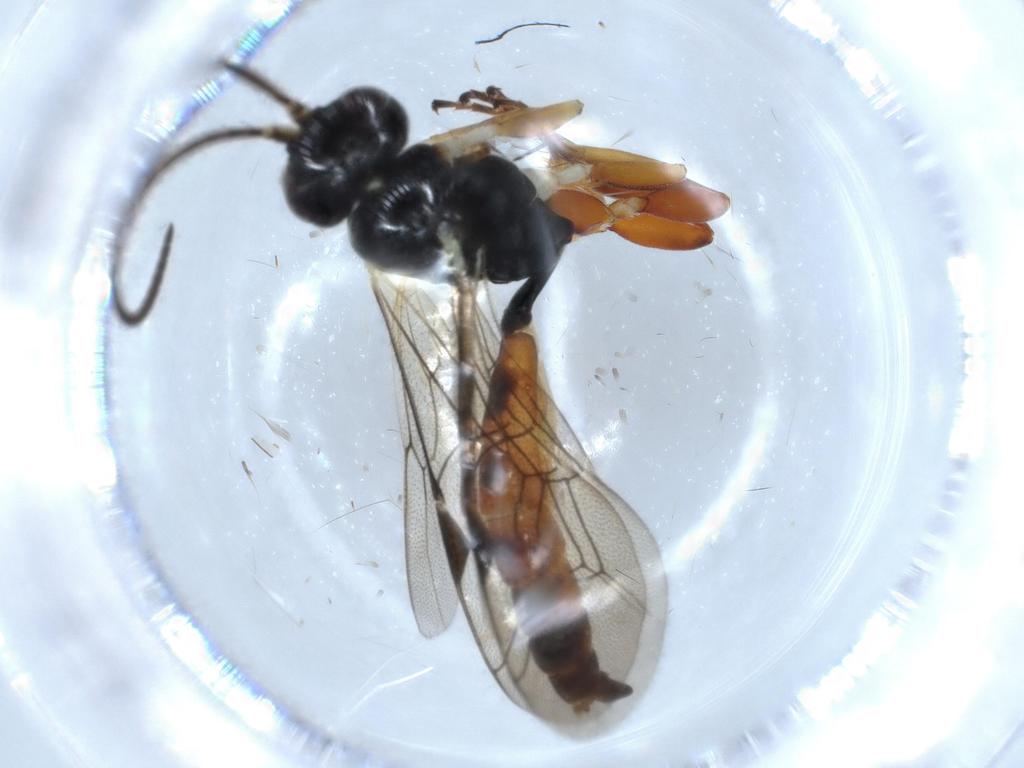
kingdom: Animalia
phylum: Arthropoda
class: Insecta
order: Hymenoptera
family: Ichneumonidae
